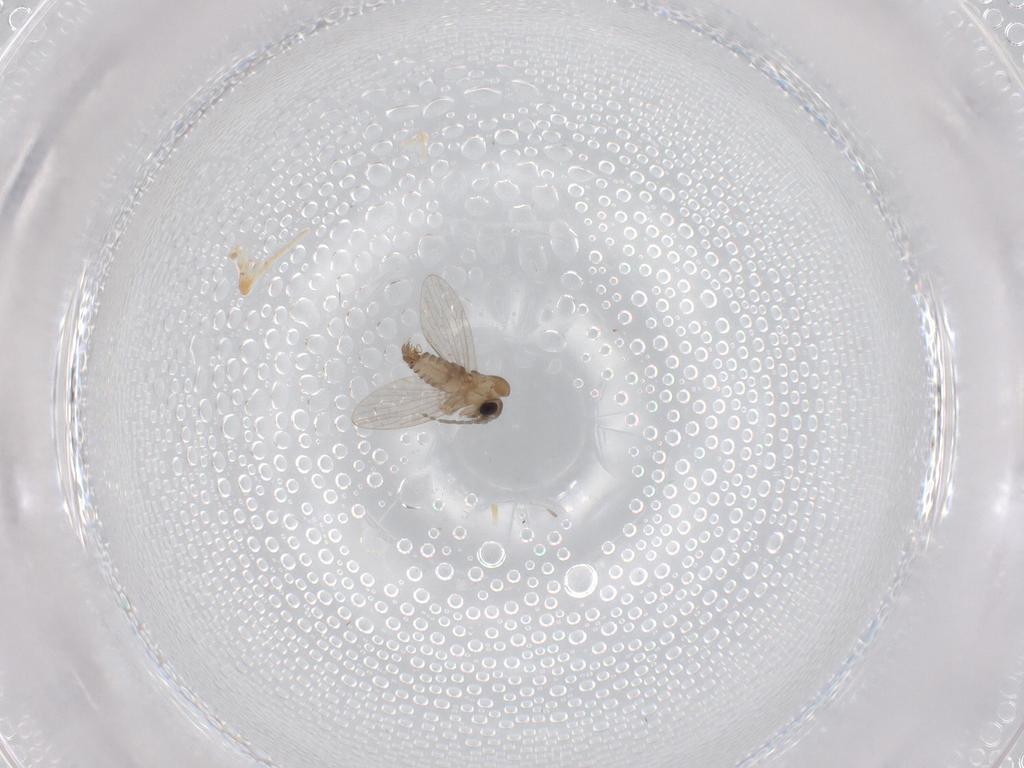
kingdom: Animalia
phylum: Arthropoda
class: Insecta
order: Diptera
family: Psychodidae
